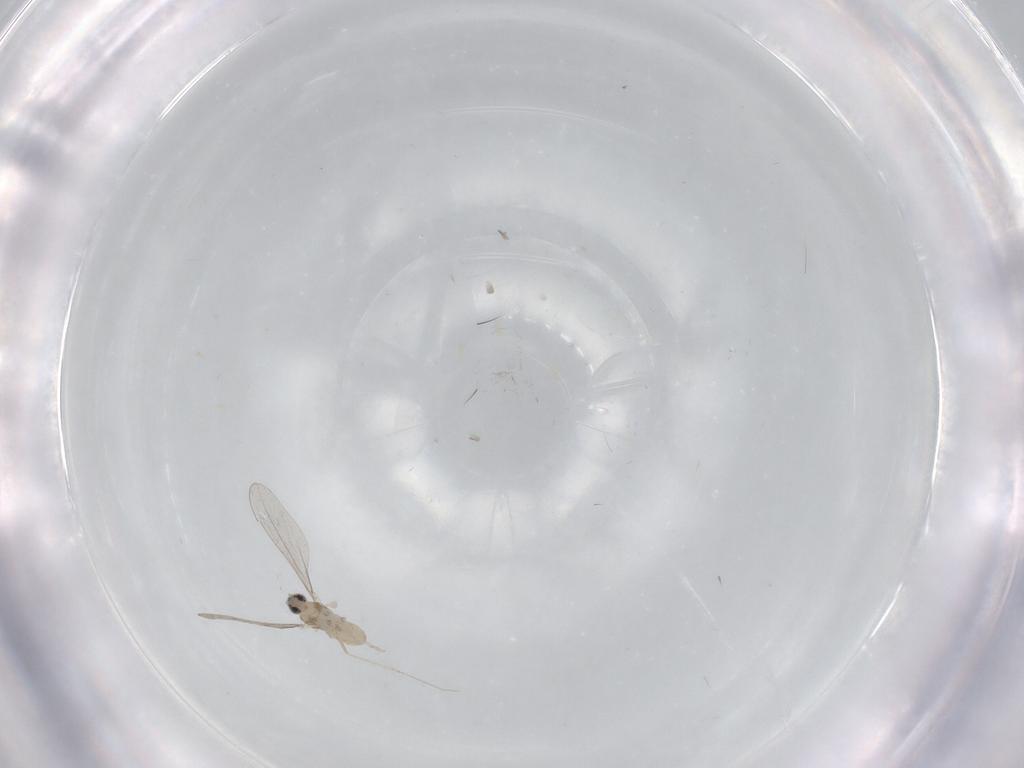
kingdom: Animalia
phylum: Arthropoda
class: Insecta
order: Diptera
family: Cecidomyiidae
